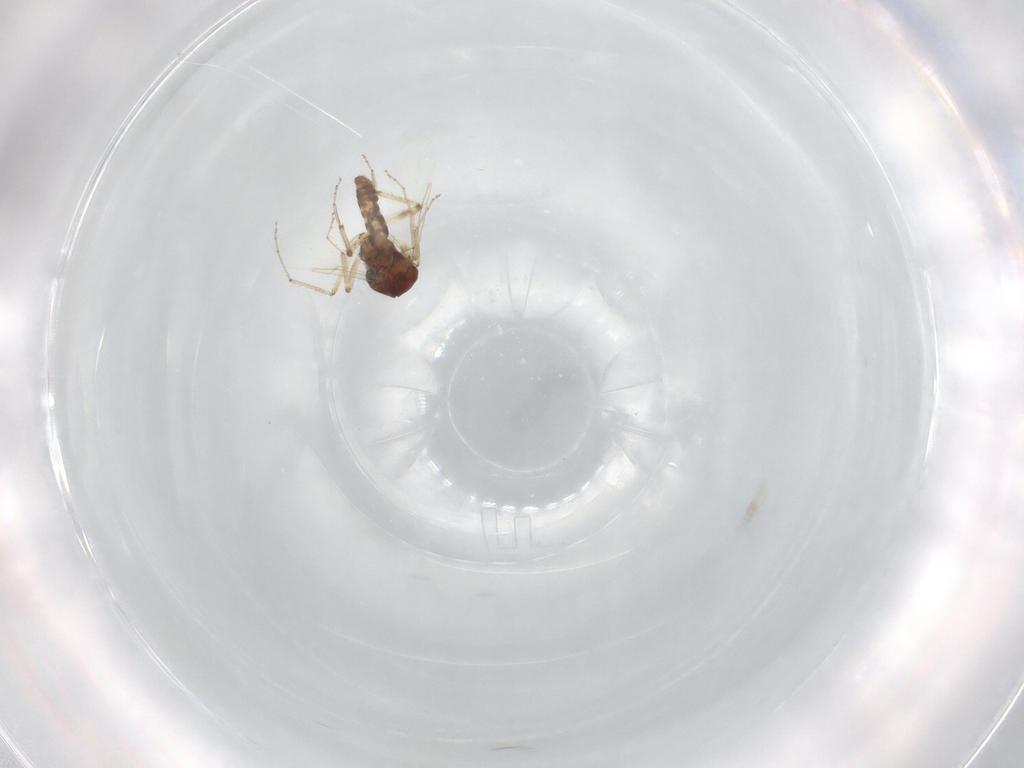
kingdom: Animalia
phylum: Arthropoda
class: Insecta
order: Diptera
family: Ceratopogonidae
